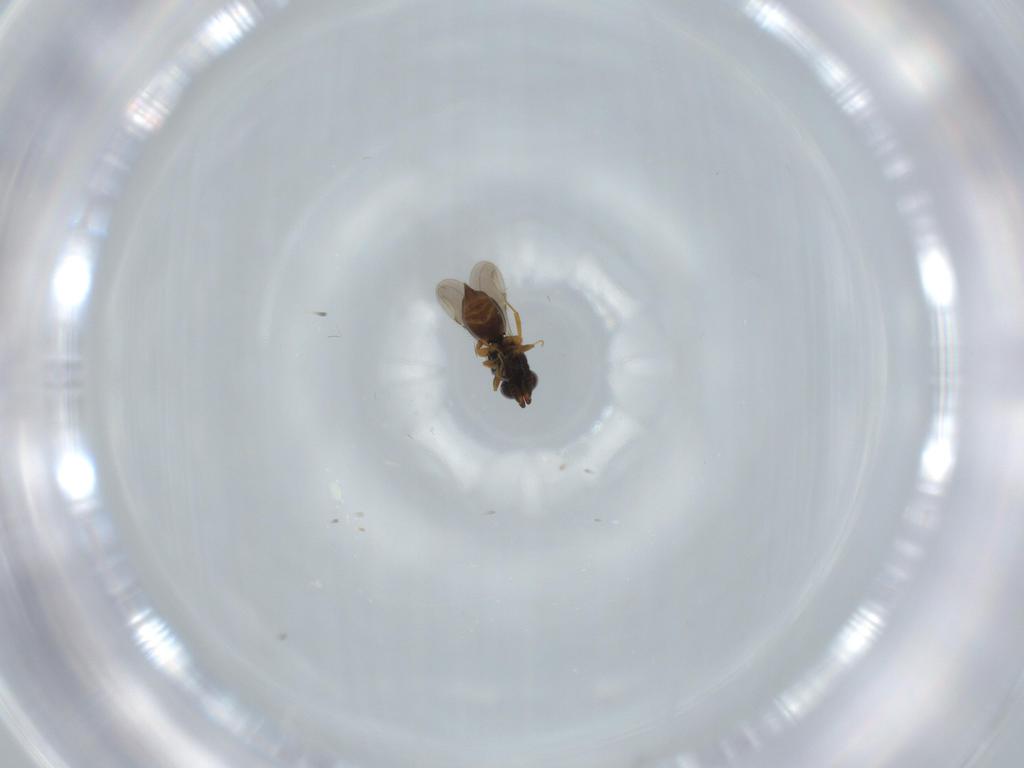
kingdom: Animalia
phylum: Arthropoda
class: Insecta
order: Hymenoptera
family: Ceraphronidae
